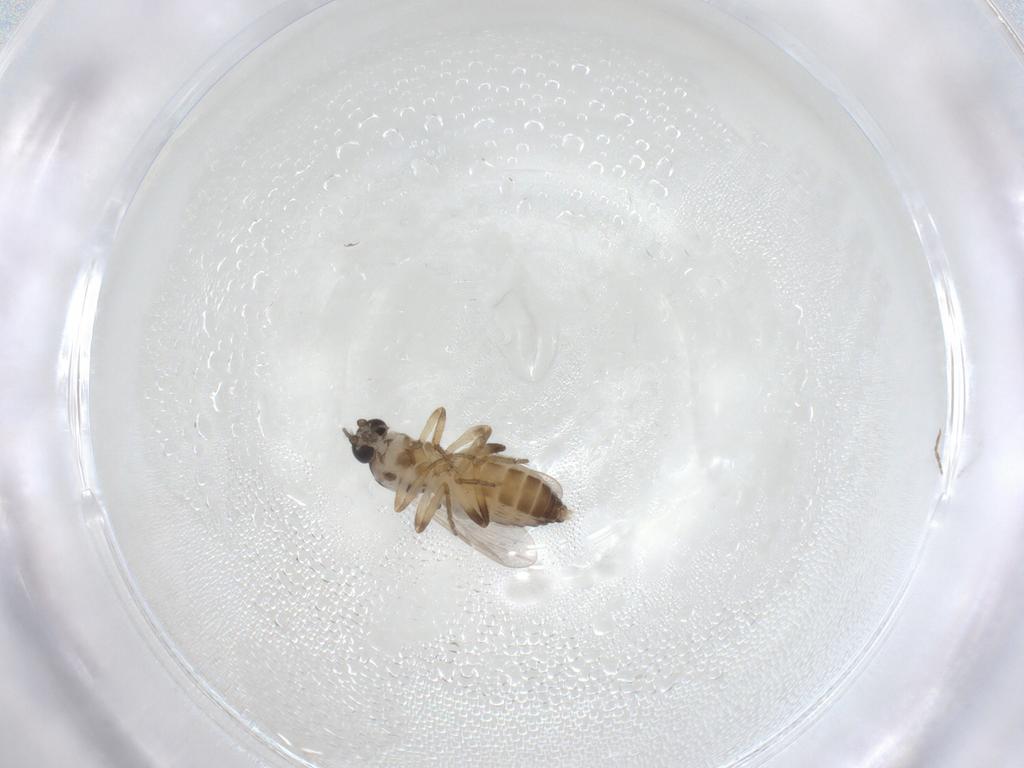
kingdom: Animalia
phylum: Arthropoda
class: Insecta
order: Diptera
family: Ceratopogonidae
